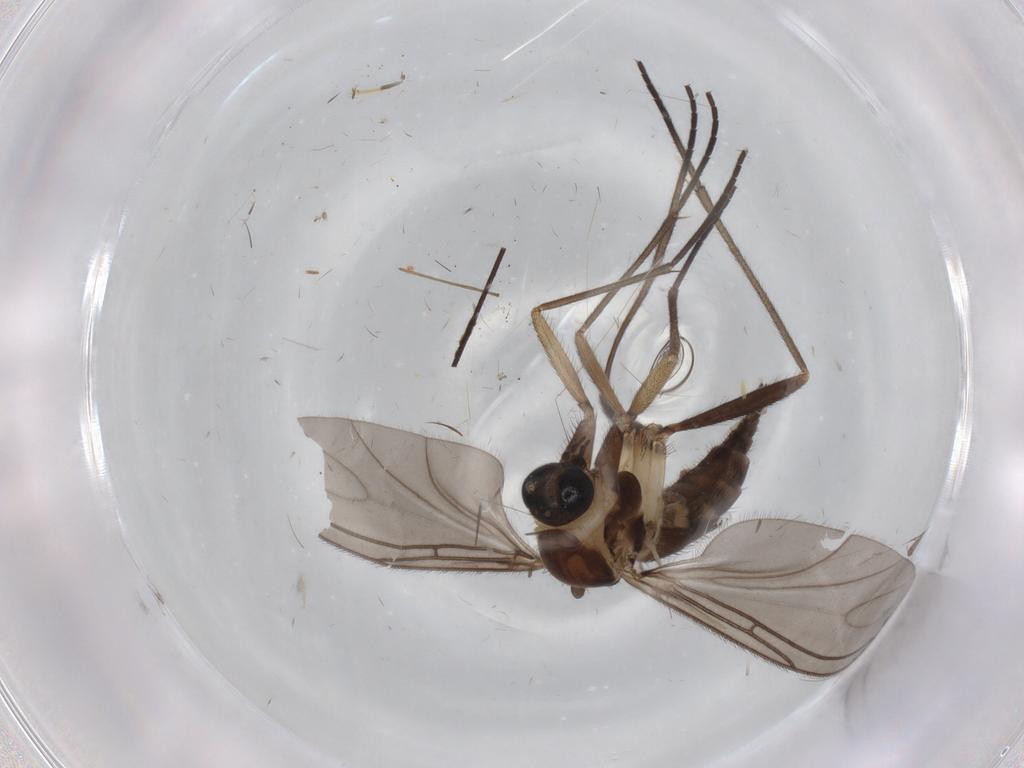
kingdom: Animalia
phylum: Arthropoda
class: Insecta
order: Diptera
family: Sciaridae
